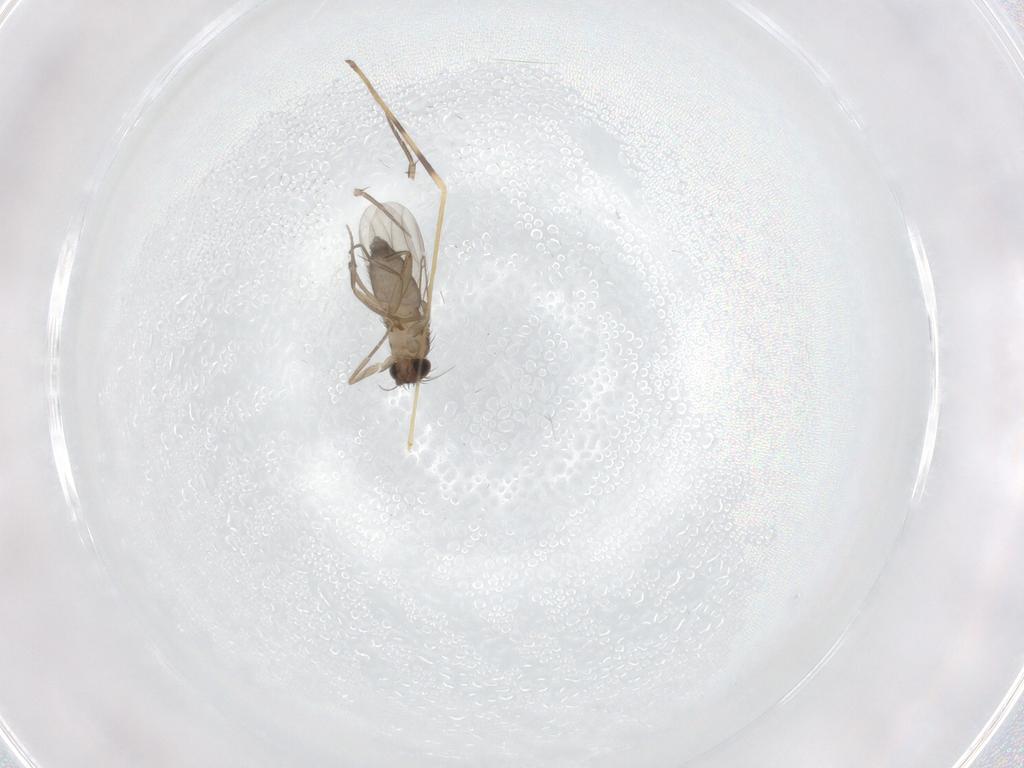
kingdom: Animalia
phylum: Arthropoda
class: Insecta
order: Diptera
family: Phoridae
